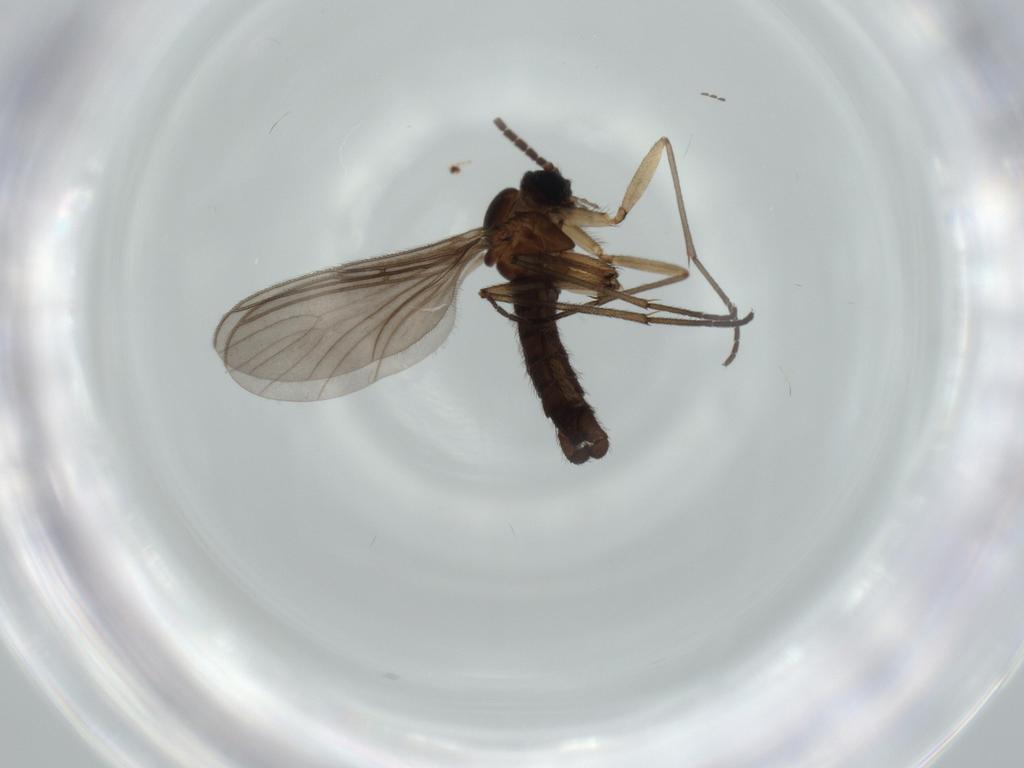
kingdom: Animalia
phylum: Arthropoda
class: Insecta
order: Diptera
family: Sciaridae
